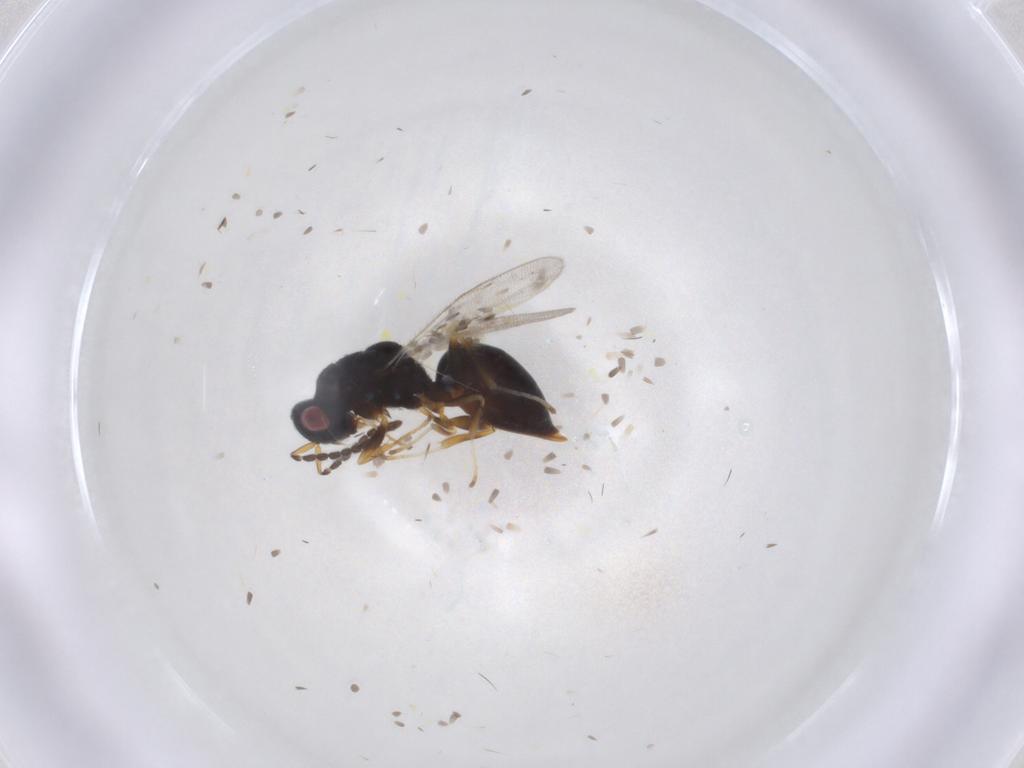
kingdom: Animalia
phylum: Arthropoda
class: Insecta
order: Hymenoptera
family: Eurytomidae
